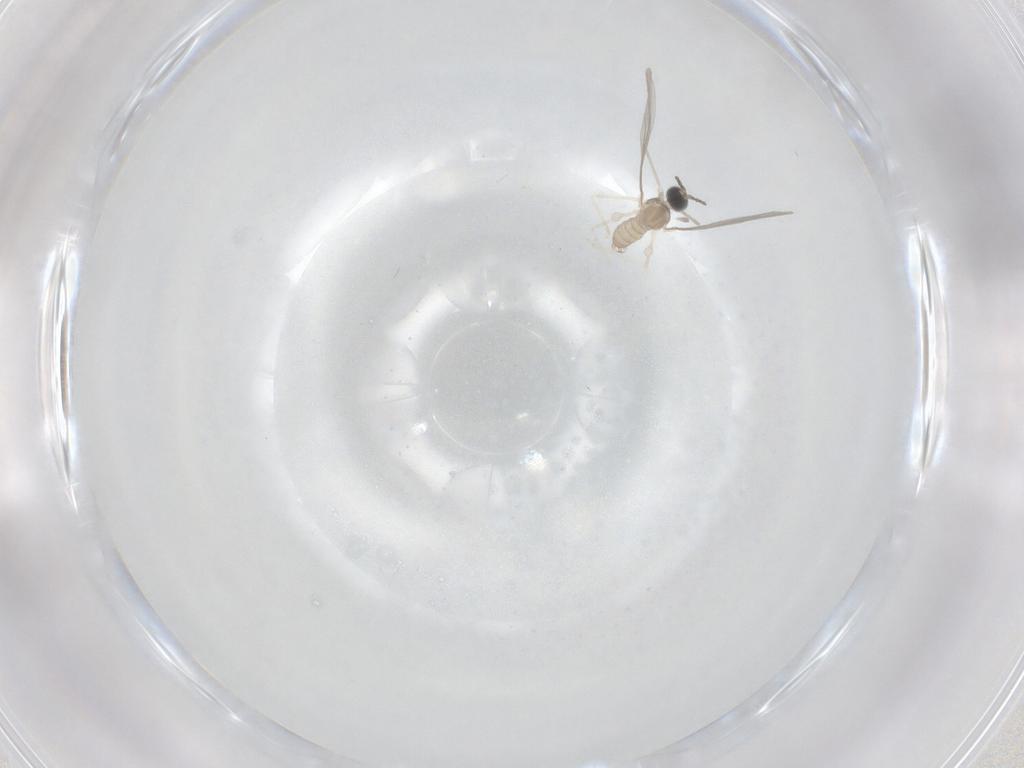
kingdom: Animalia
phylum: Arthropoda
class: Insecta
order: Diptera
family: Cecidomyiidae
